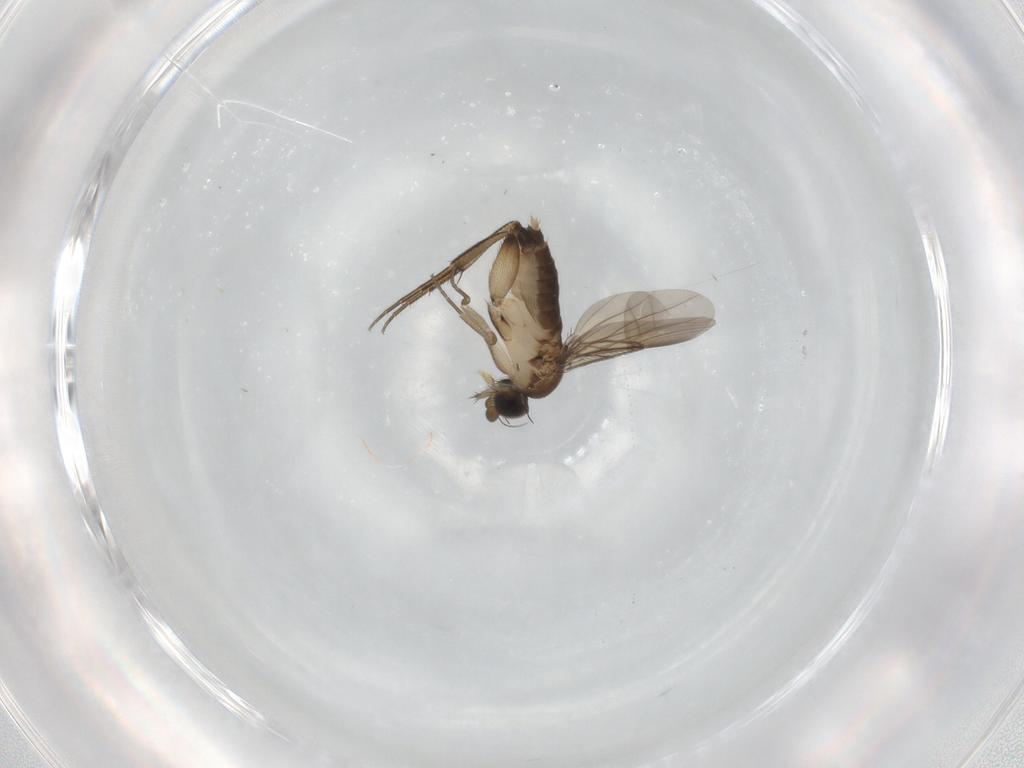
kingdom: Animalia
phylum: Arthropoda
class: Insecta
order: Diptera
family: Phoridae
